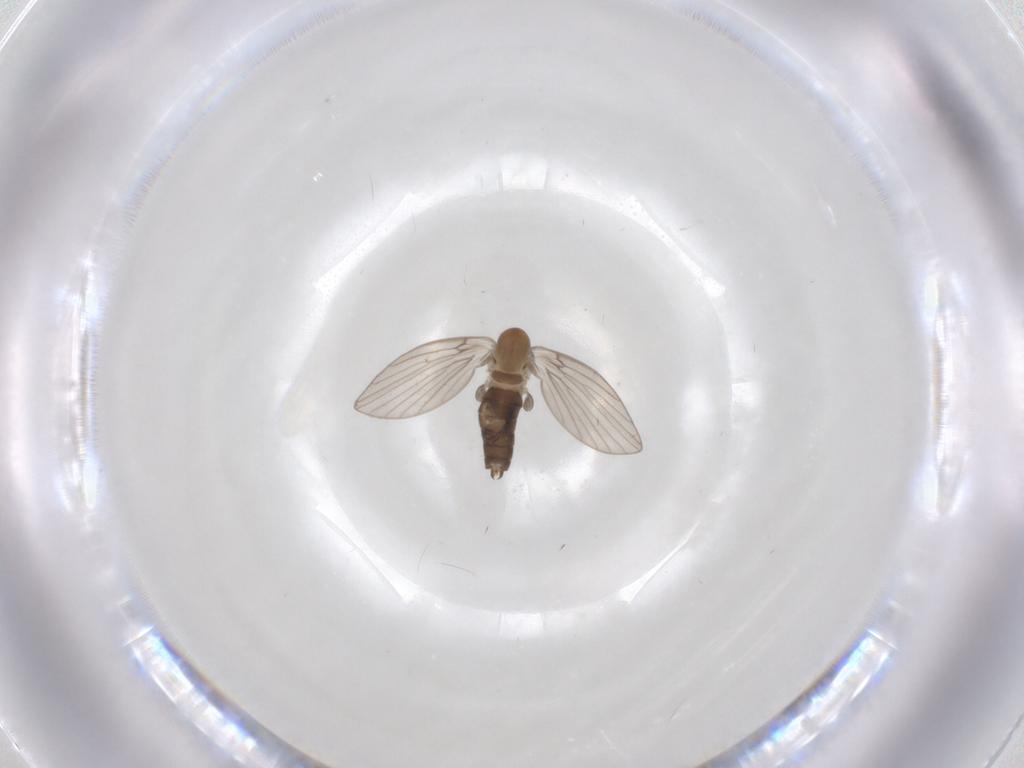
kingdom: Animalia
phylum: Arthropoda
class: Insecta
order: Diptera
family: Psychodidae
